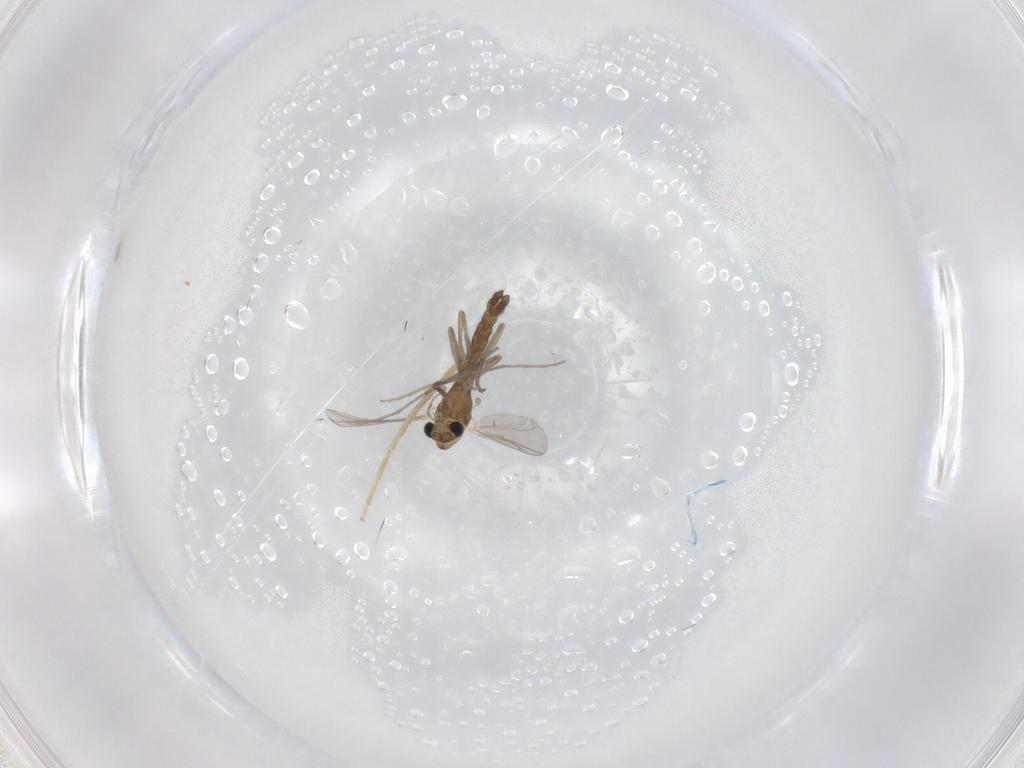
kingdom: Animalia
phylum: Arthropoda
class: Insecta
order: Diptera
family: Chironomidae
